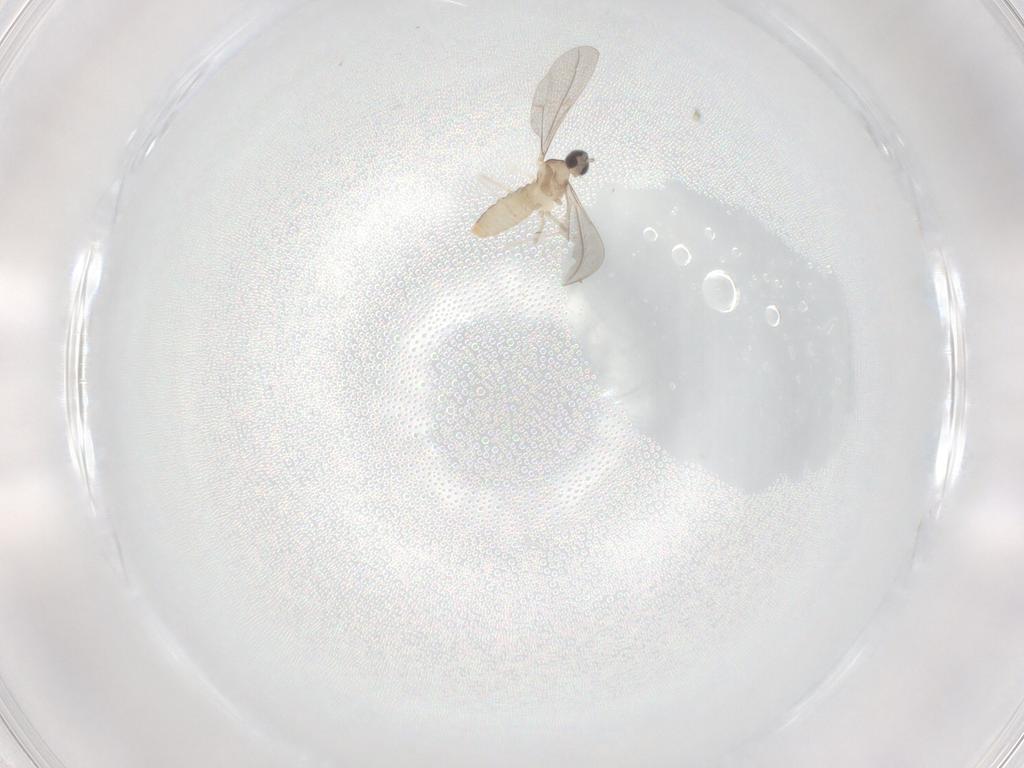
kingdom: Animalia
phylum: Arthropoda
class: Insecta
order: Diptera
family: Cecidomyiidae
